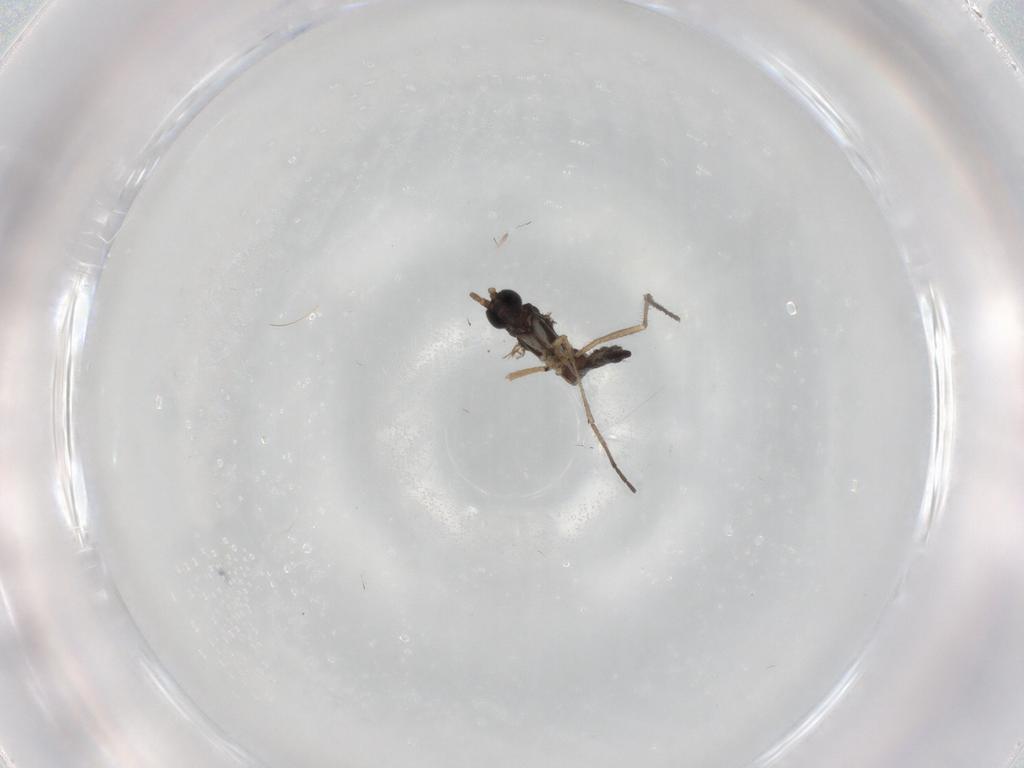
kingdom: Animalia
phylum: Arthropoda
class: Insecta
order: Diptera
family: Sciaridae
